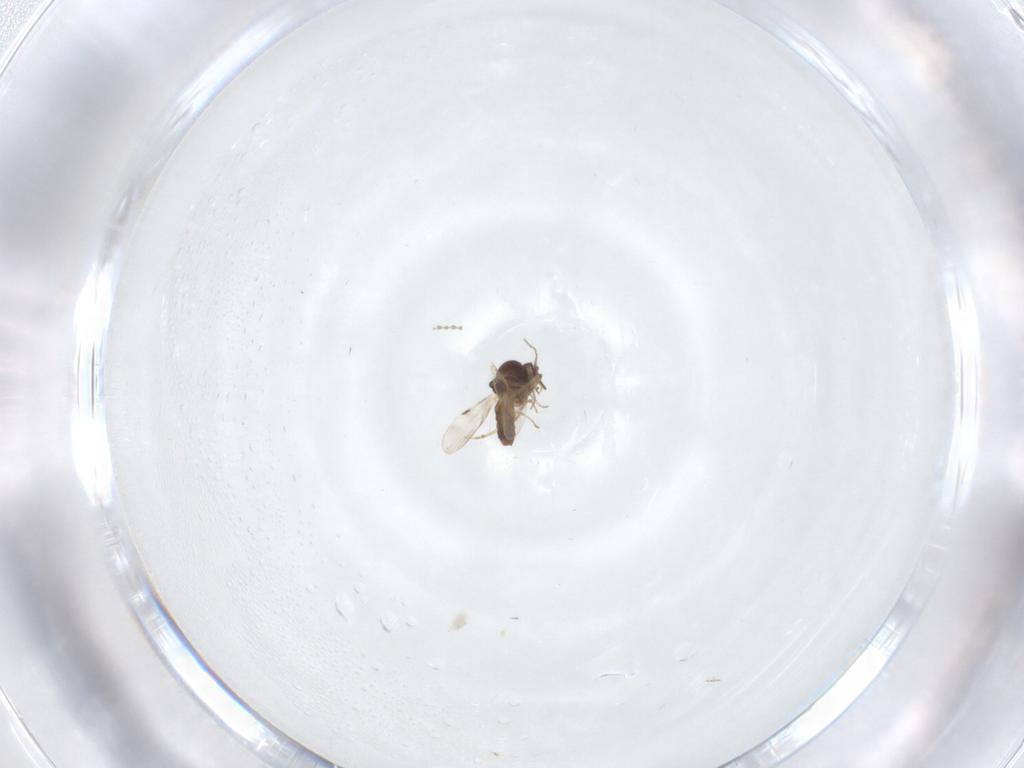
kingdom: Animalia
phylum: Arthropoda
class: Insecta
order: Diptera
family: Cecidomyiidae
